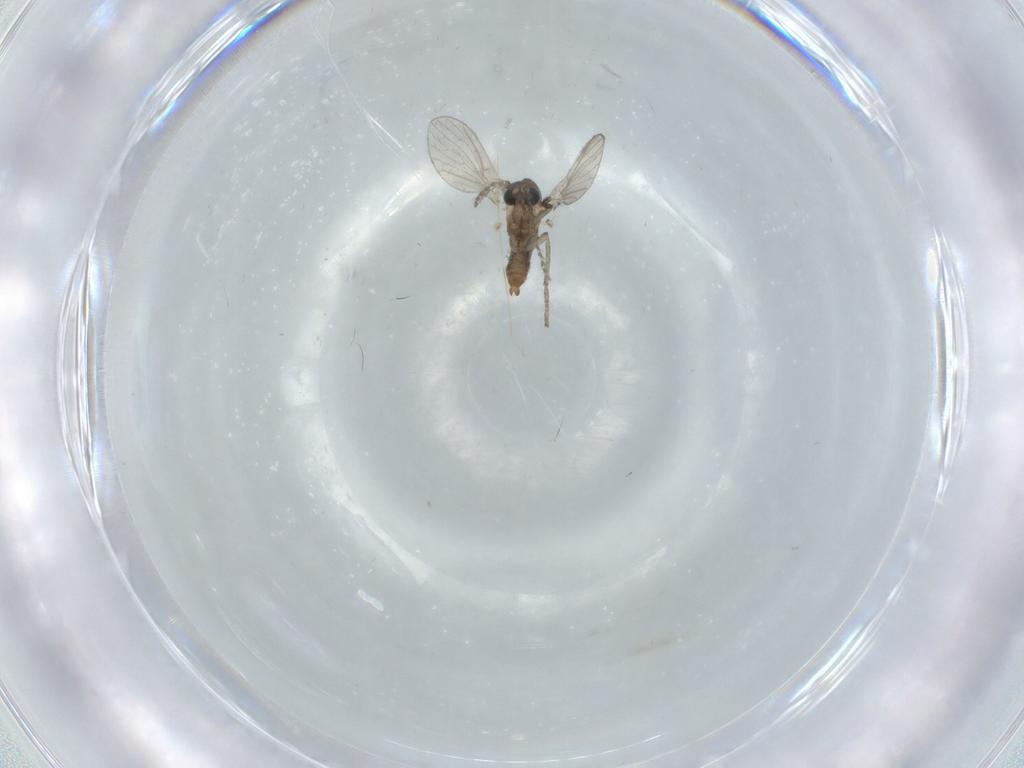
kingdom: Animalia
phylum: Arthropoda
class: Insecta
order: Diptera
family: Psychodidae
